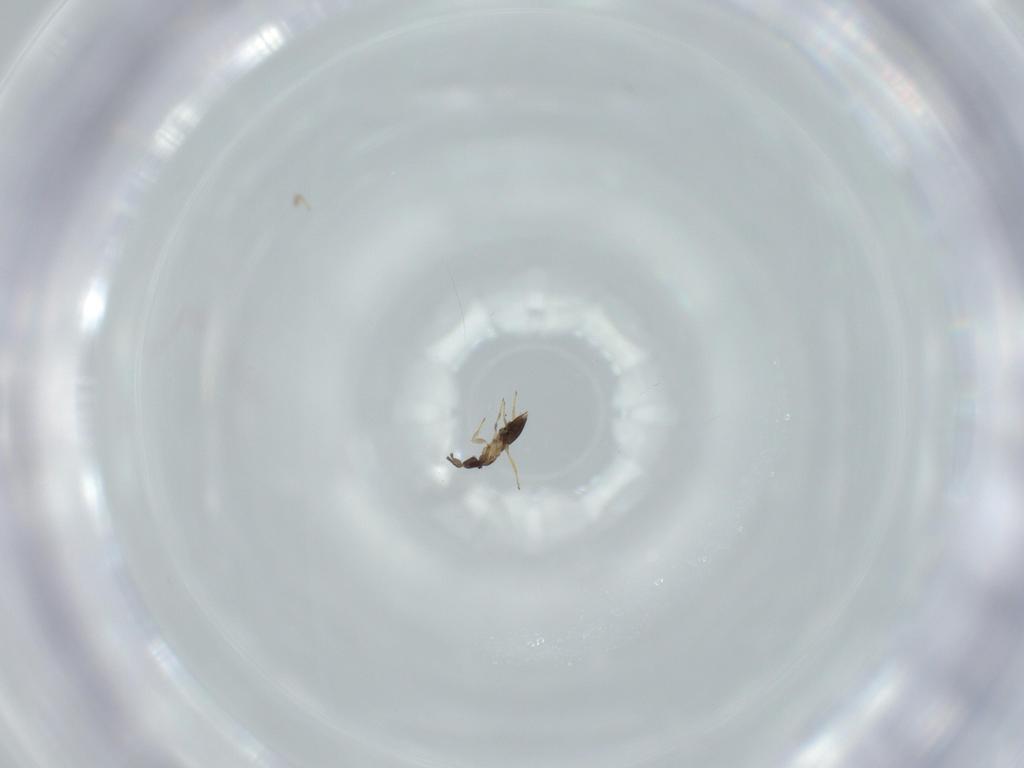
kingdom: Animalia
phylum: Arthropoda
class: Insecta
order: Hymenoptera
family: Mymaridae
